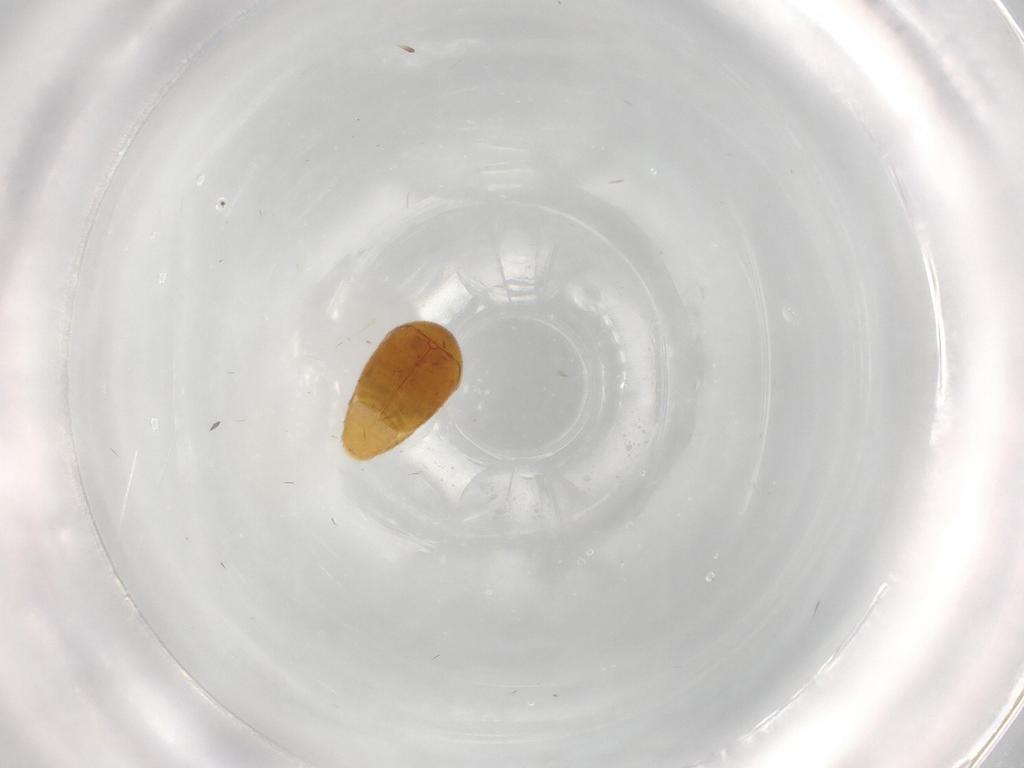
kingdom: Animalia
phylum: Arthropoda
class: Insecta
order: Coleoptera
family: Corylophidae
